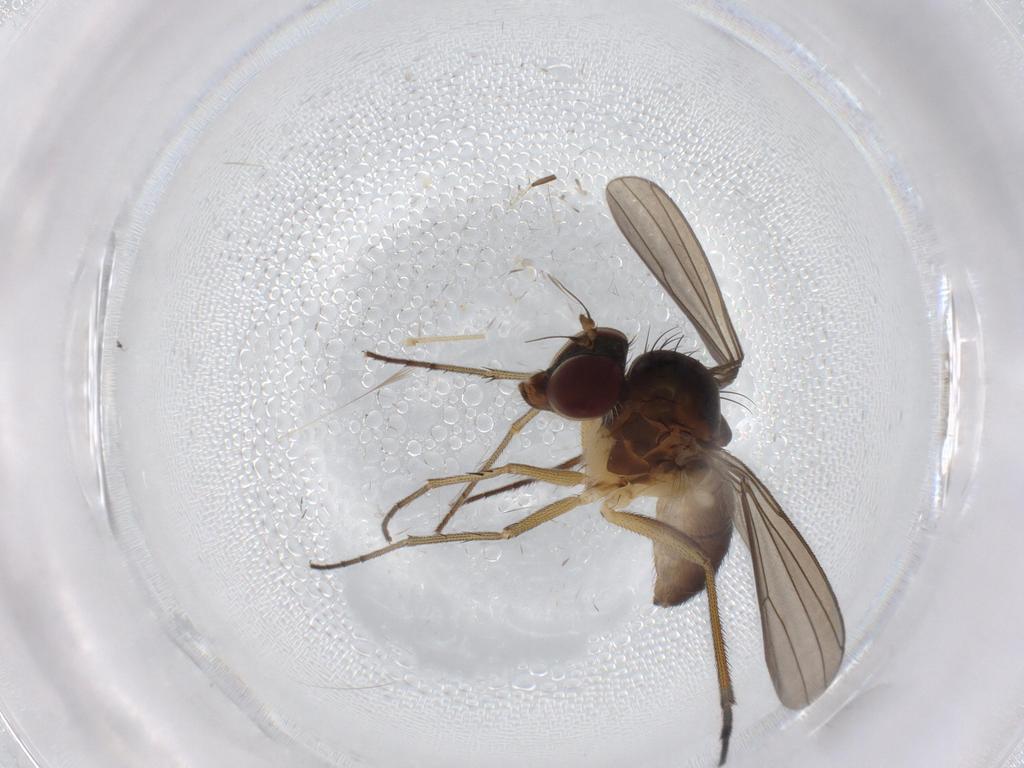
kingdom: Animalia
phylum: Arthropoda
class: Insecta
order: Diptera
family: Dolichopodidae
